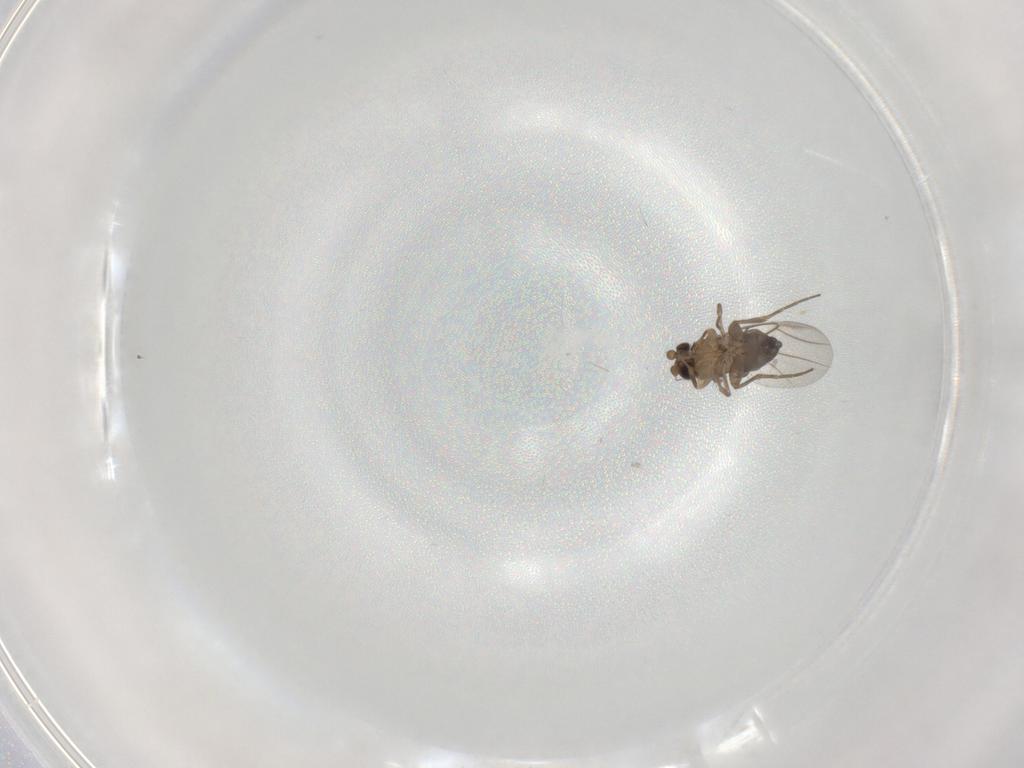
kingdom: Animalia
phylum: Arthropoda
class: Insecta
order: Diptera
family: Phoridae
